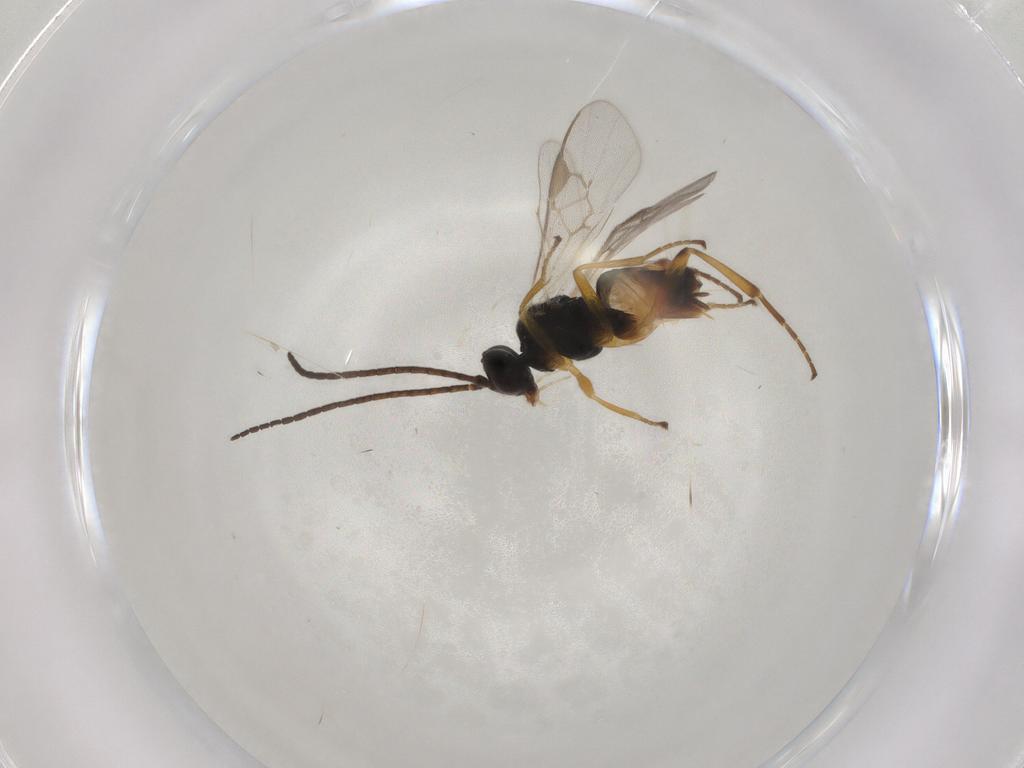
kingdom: Animalia
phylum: Arthropoda
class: Insecta
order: Hymenoptera
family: Braconidae
